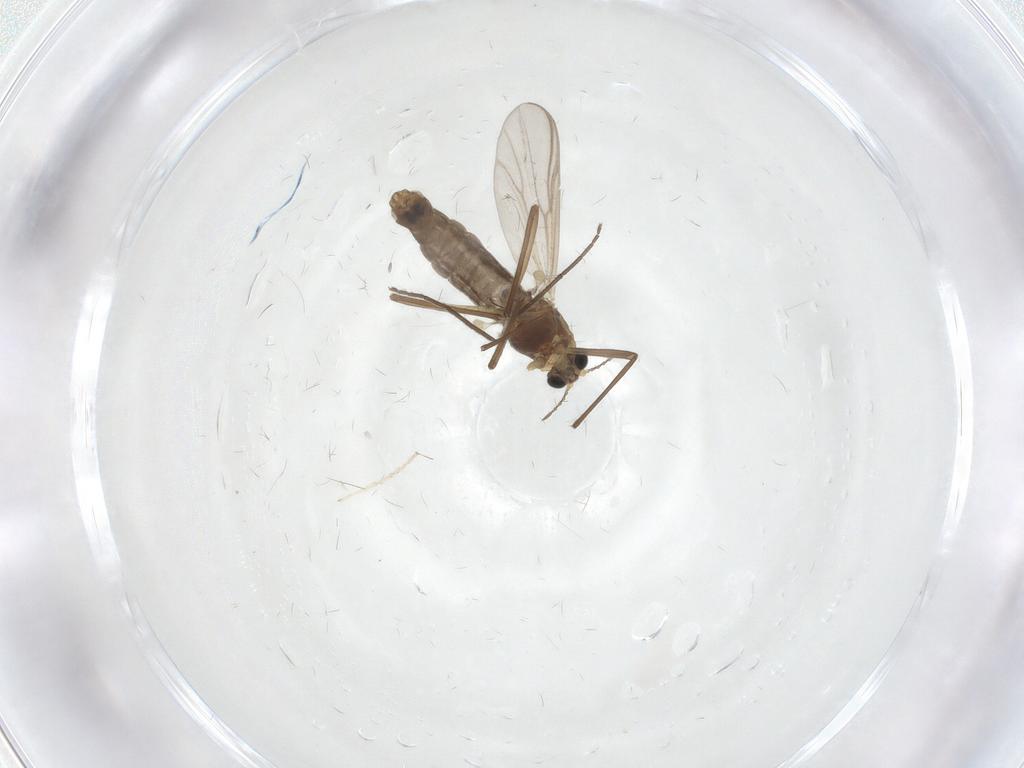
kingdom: Animalia
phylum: Arthropoda
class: Insecta
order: Diptera
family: Chironomidae
